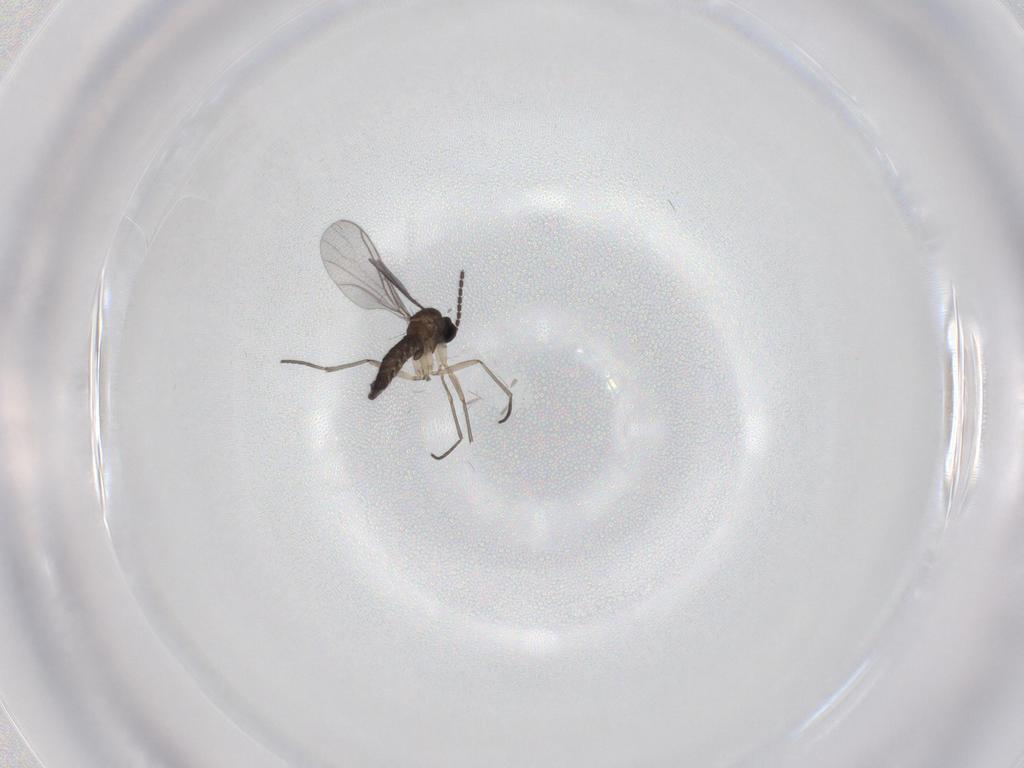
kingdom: Animalia
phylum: Arthropoda
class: Insecta
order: Diptera
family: Sciaridae
